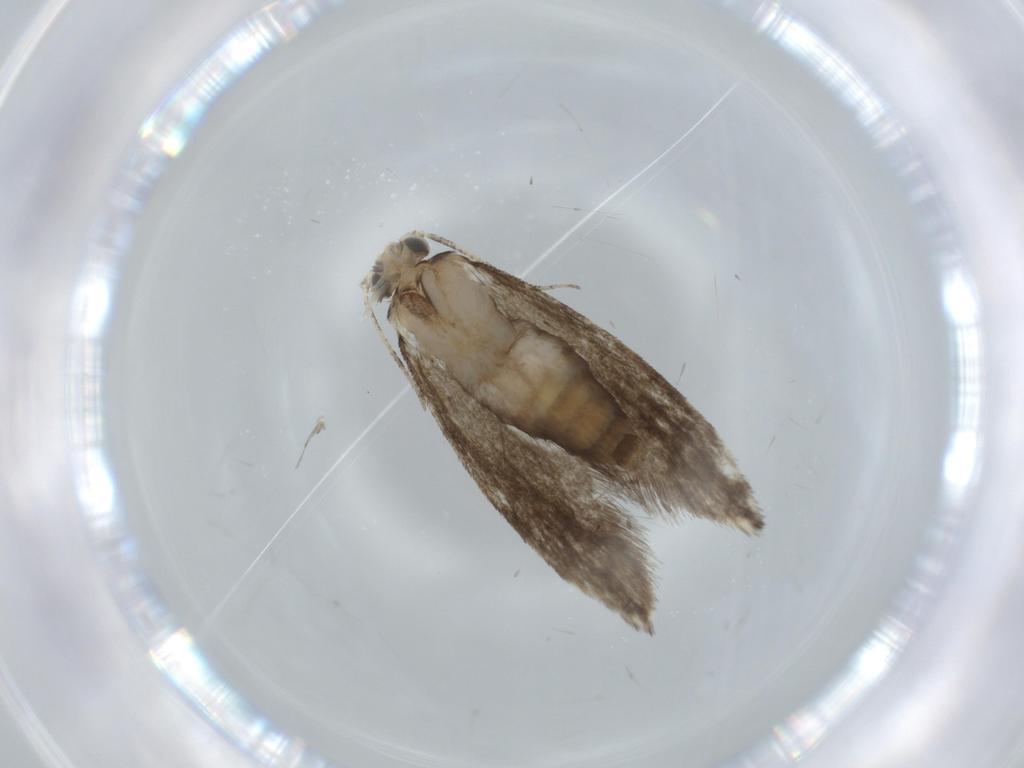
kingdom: Animalia
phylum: Arthropoda
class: Insecta
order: Lepidoptera
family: Tineidae
